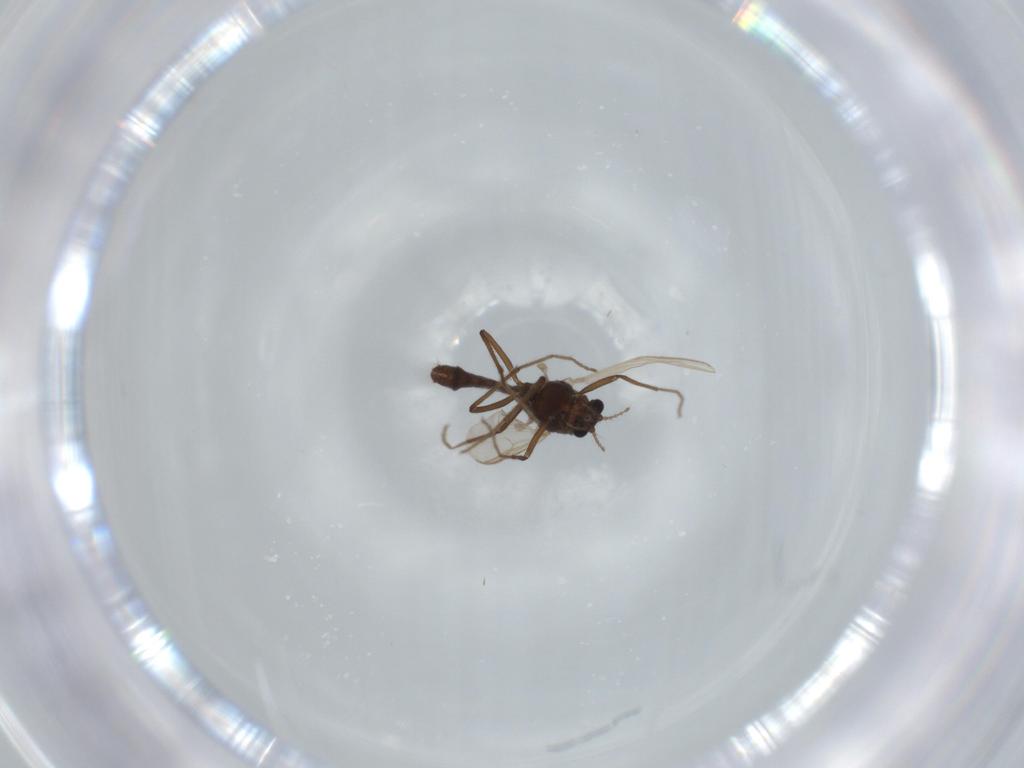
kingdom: Animalia
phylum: Arthropoda
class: Insecta
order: Diptera
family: Chironomidae
